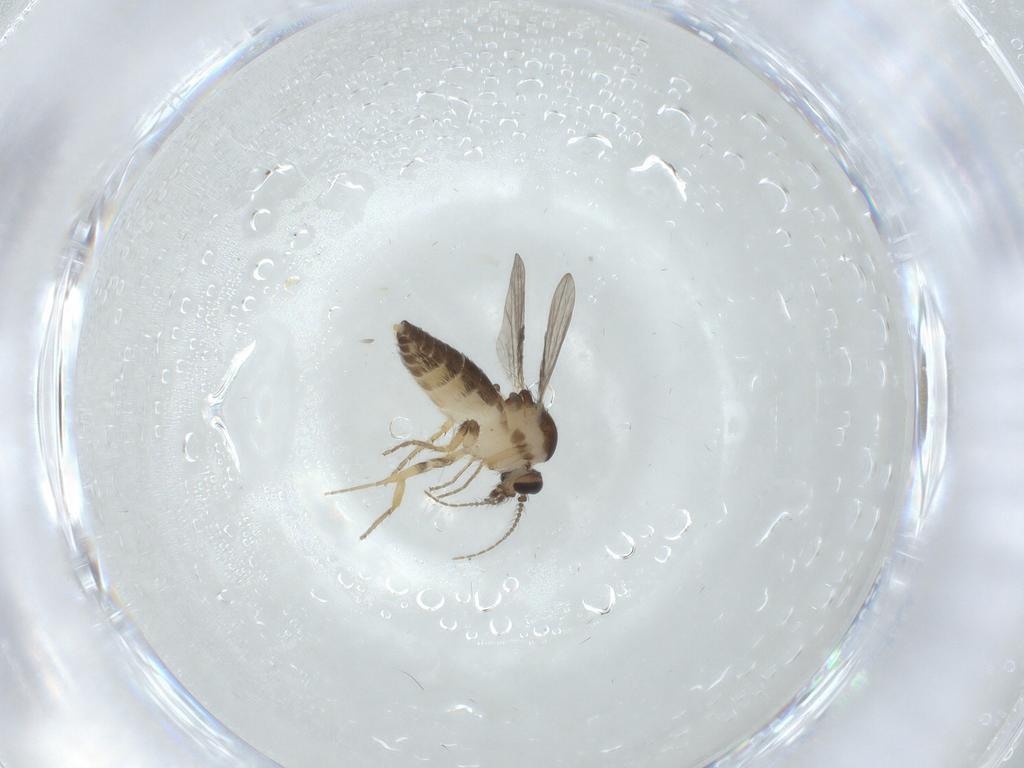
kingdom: Animalia
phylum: Arthropoda
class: Insecta
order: Diptera
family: Ceratopogonidae
